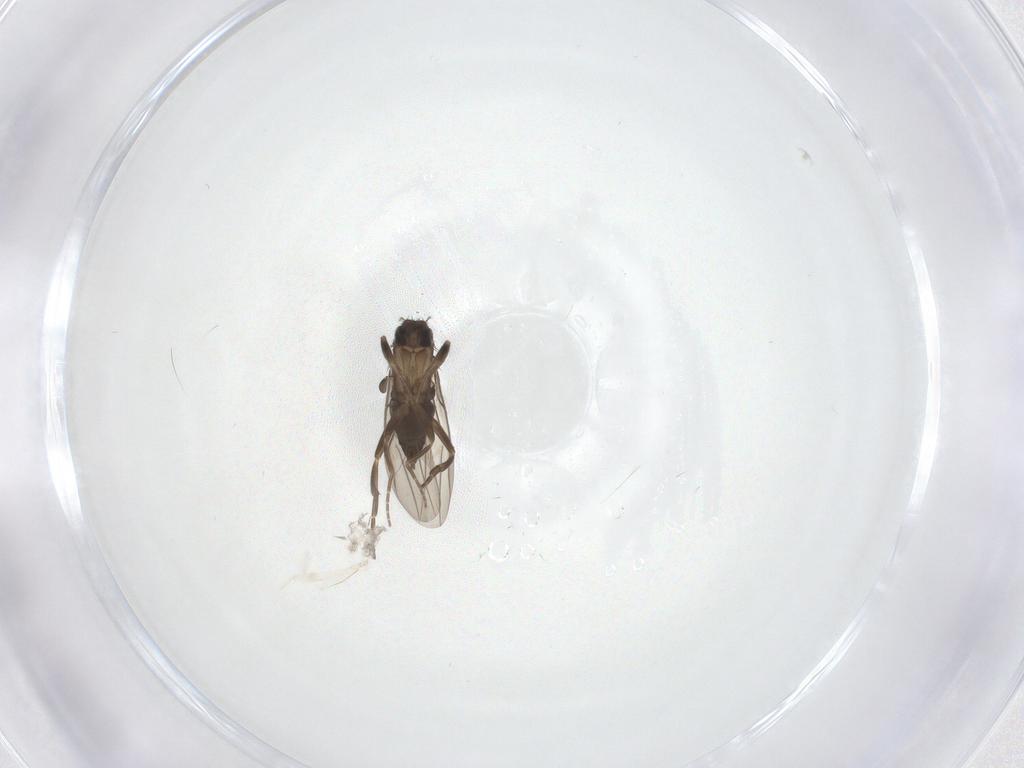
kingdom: Animalia
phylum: Arthropoda
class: Insecta
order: Diptera
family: Phoridae
